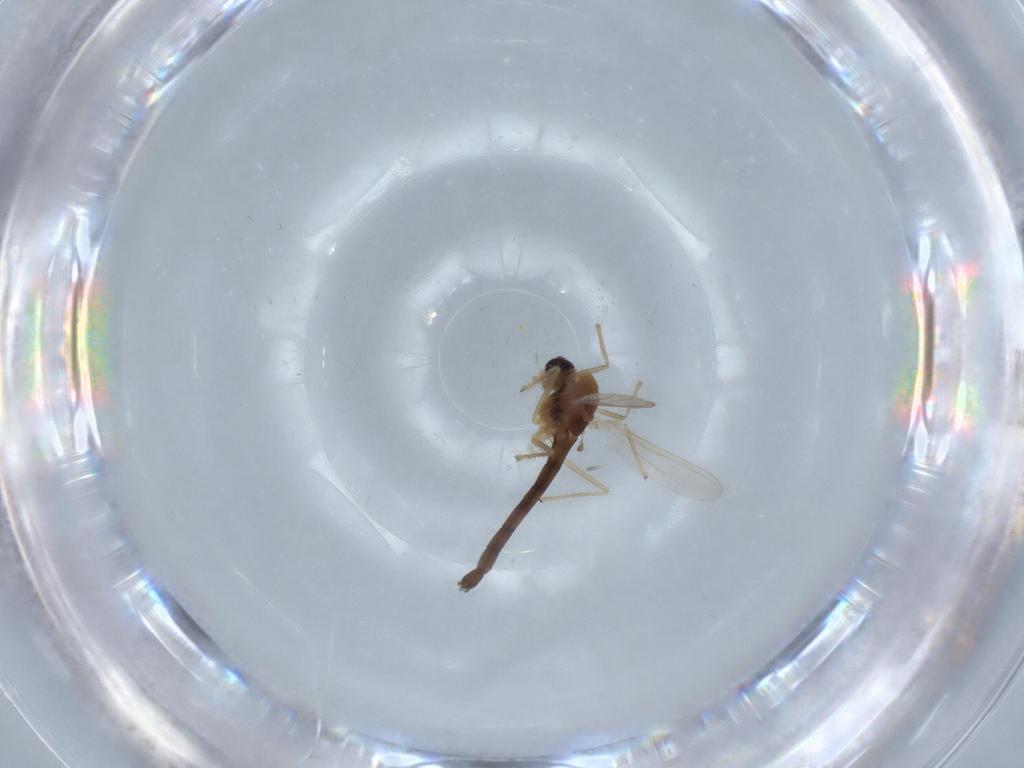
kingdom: Animalia
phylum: Arthropoda
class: Insecta
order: Diptera
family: Chironomidae
